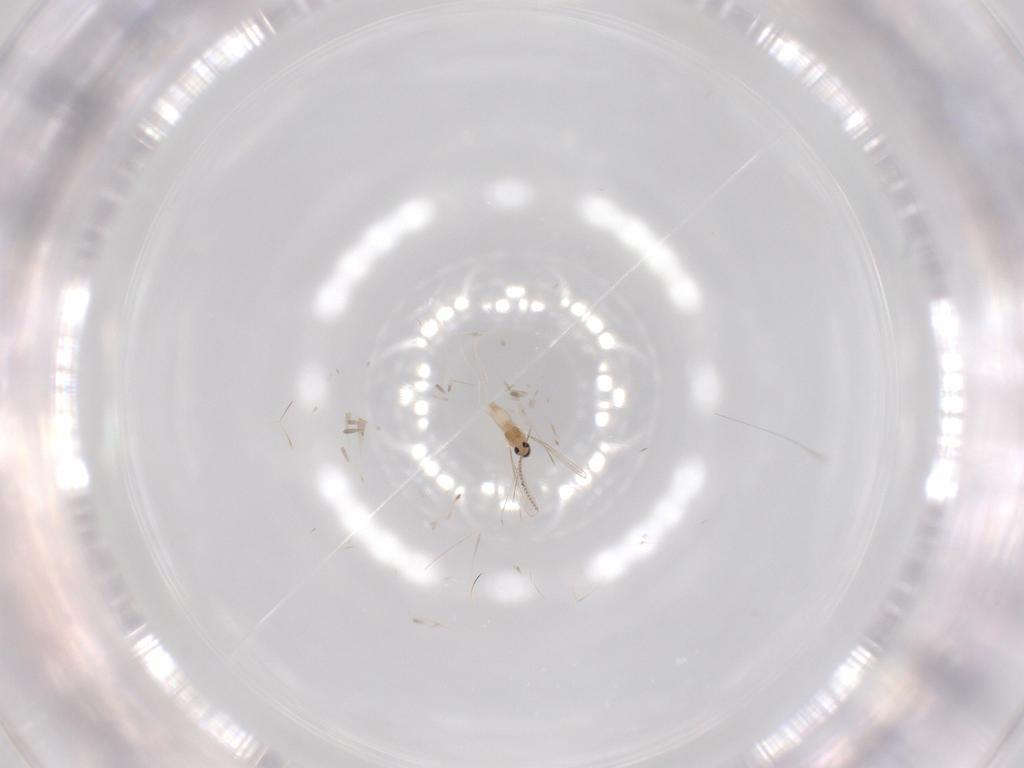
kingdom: Animalia
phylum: Arthropoda
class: Insecta
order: Diptera
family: Cecidomyiidae
